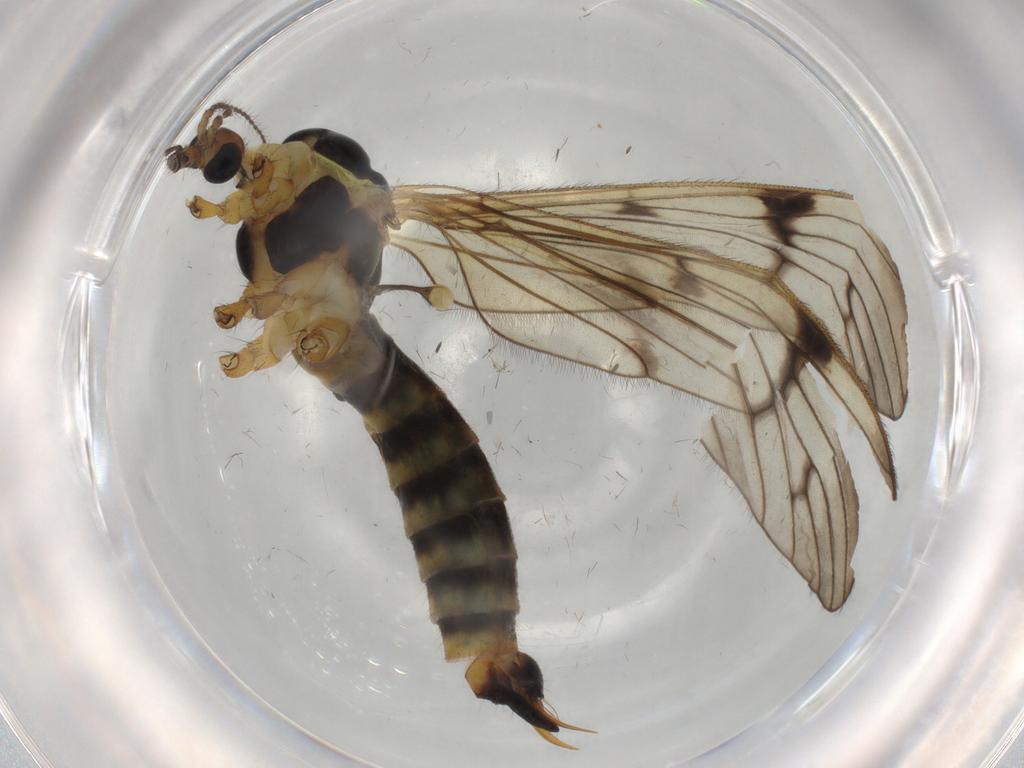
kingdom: Animalia
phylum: Arthropoda
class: Insecta
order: Diptera
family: Limoniidae
